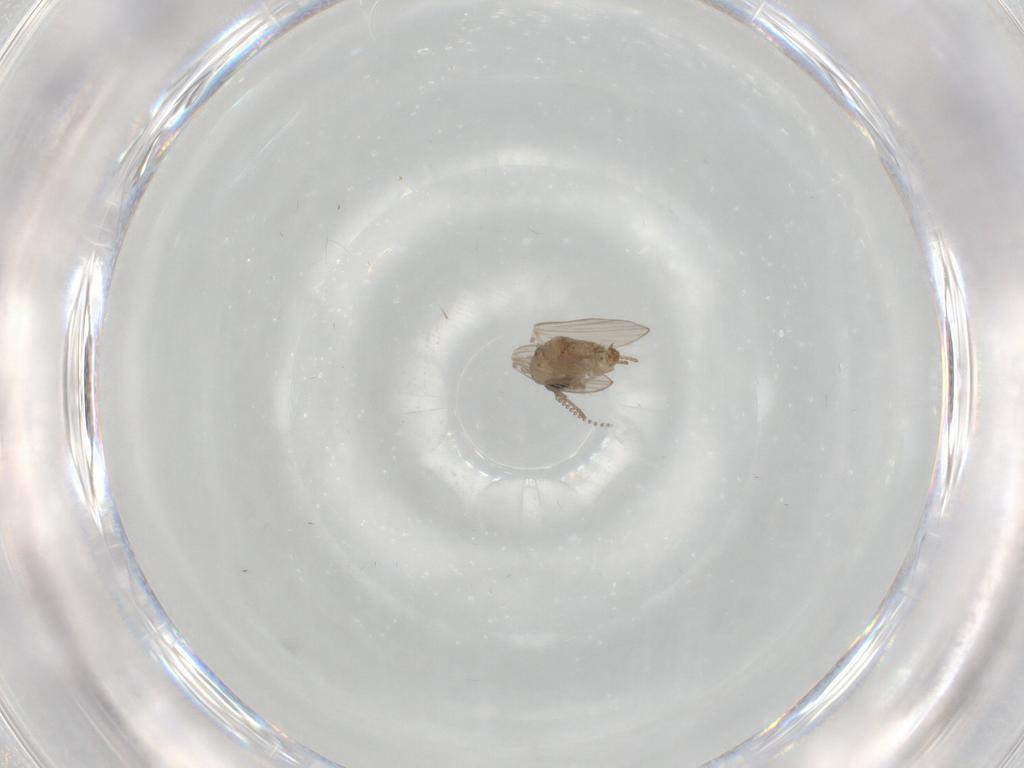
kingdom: Animalia
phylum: Arthropoda
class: Insecta
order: Diptera
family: Psychodidae
